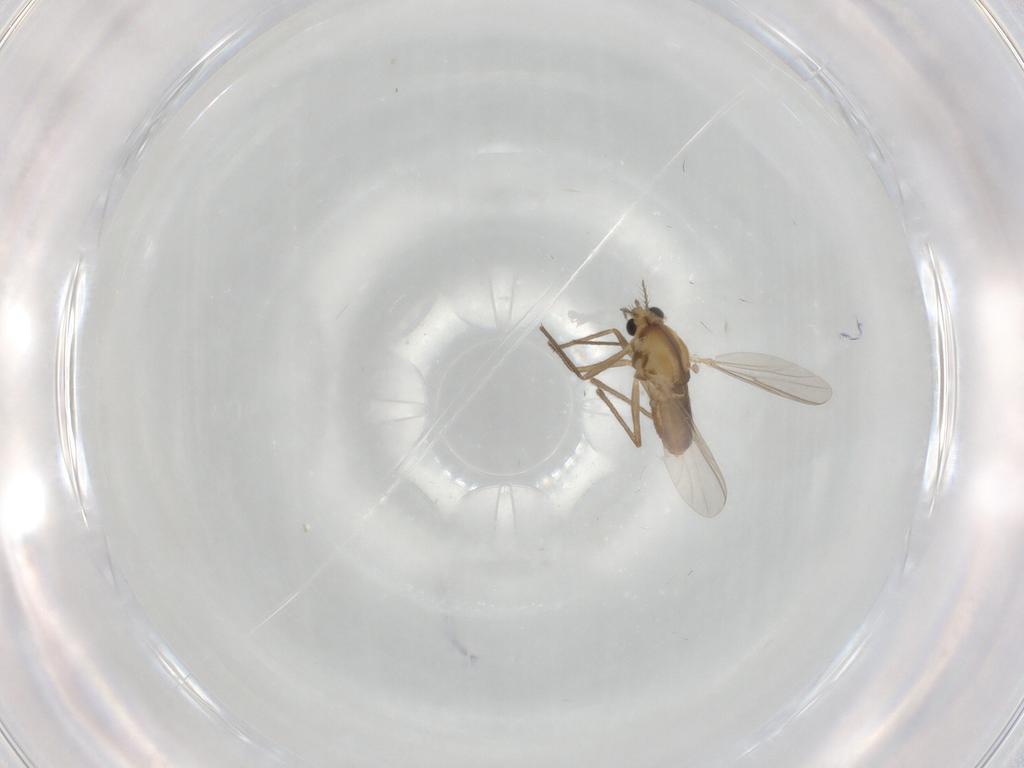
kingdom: Animalia
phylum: Arthropoda
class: Insecta
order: Diptera
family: Chironomidae
